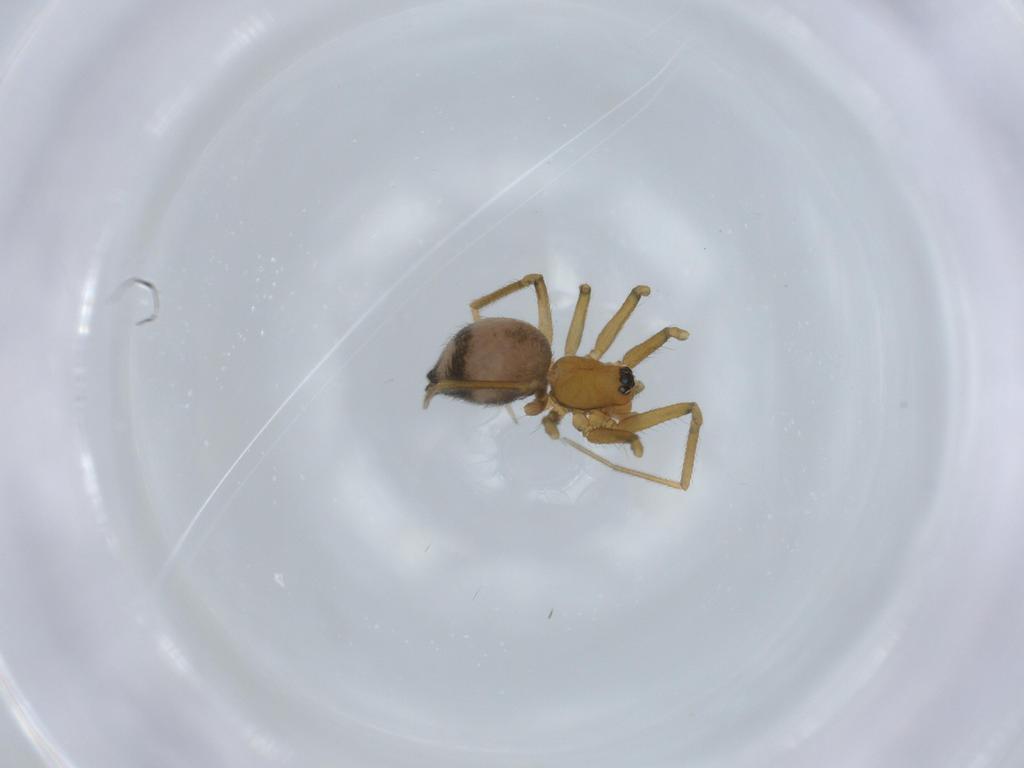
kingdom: Animalia
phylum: Arthropoda
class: Arachnida
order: Araneae
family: Linyphiidae
